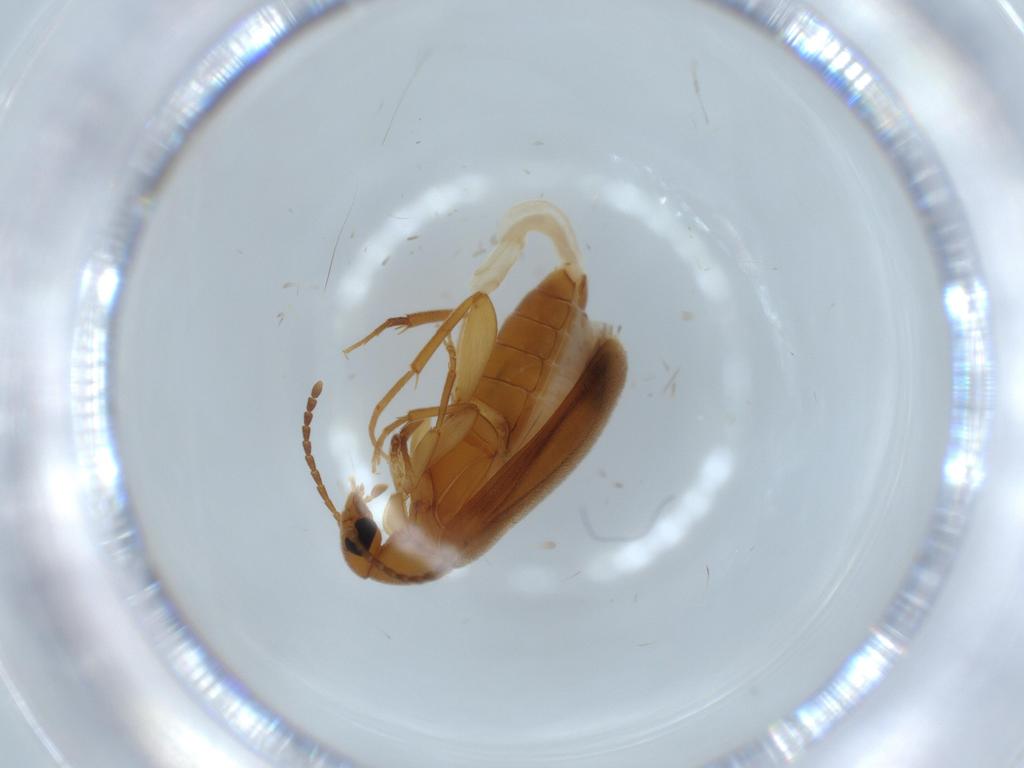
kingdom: Animalia
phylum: Arthropoda
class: Insecta
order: Coleoptera
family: Scraptiidae
